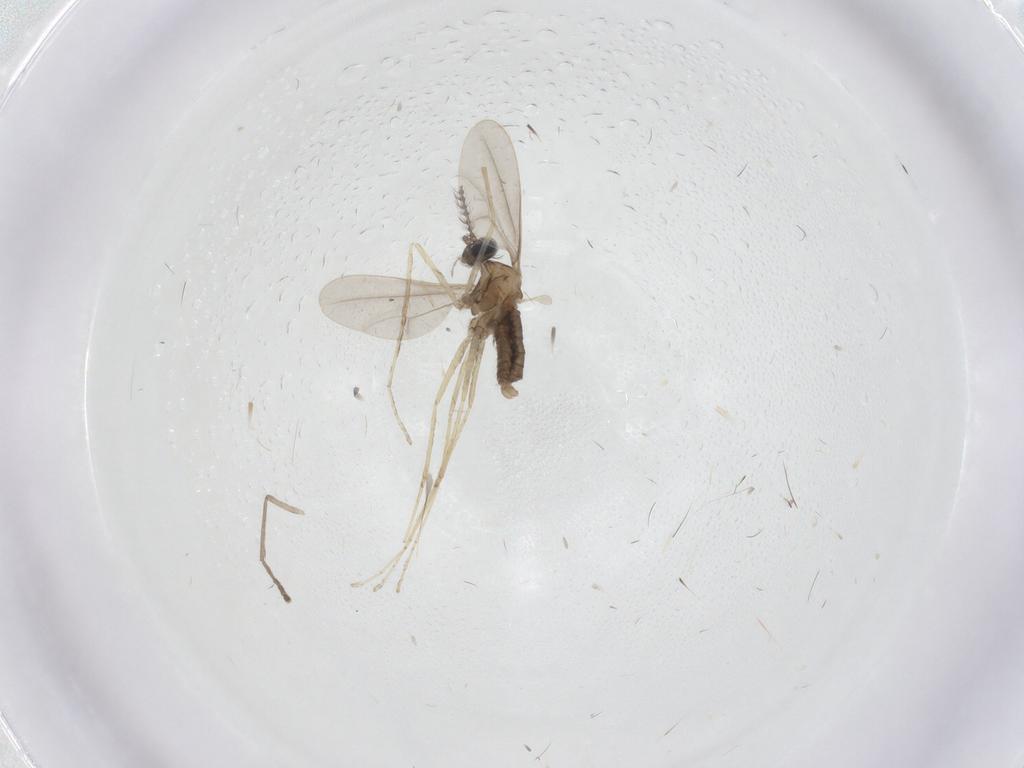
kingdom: Animalia
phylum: Arthropoda
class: Insecta
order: Diptera
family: Cecidomyiidae
